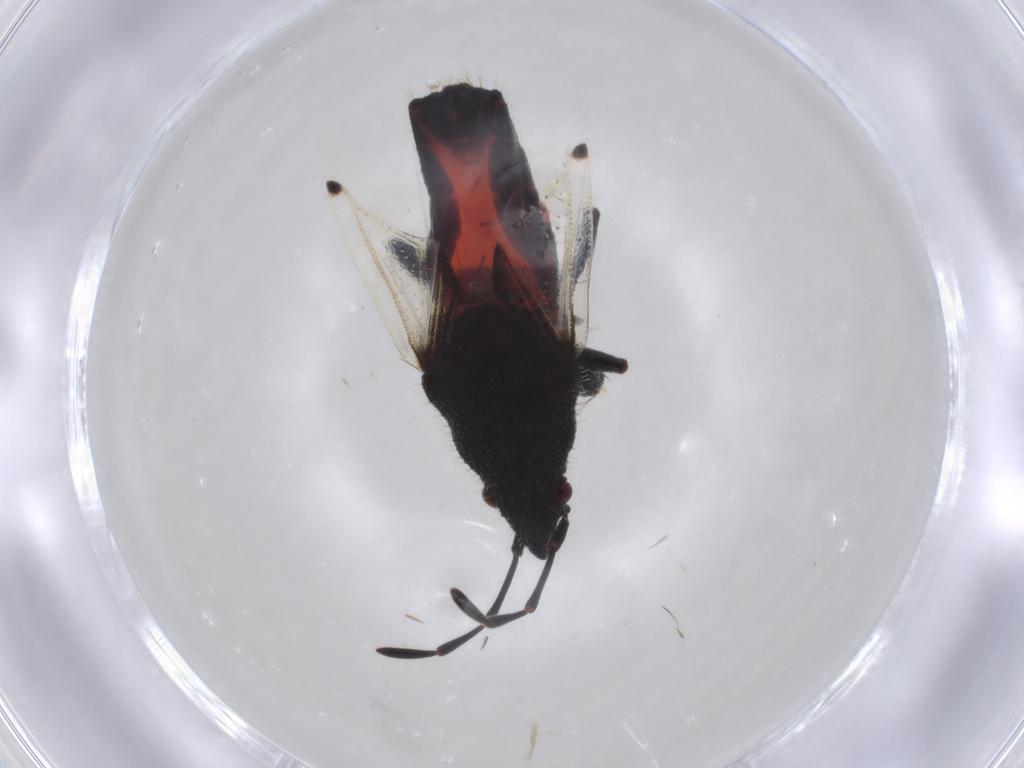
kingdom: Animalia
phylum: Arthropoda
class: Insecta
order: Hemiptera
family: Oxycarenidae
